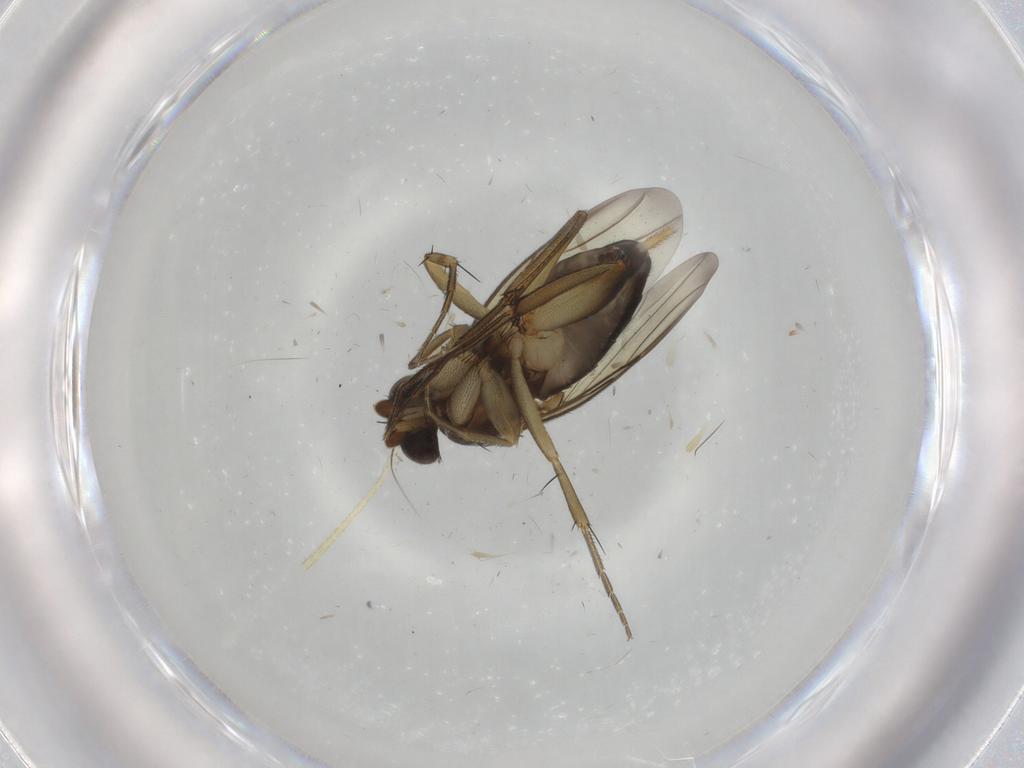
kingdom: Animalia
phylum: Arthropoda
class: Insecta
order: Diptera
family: Phoridae
